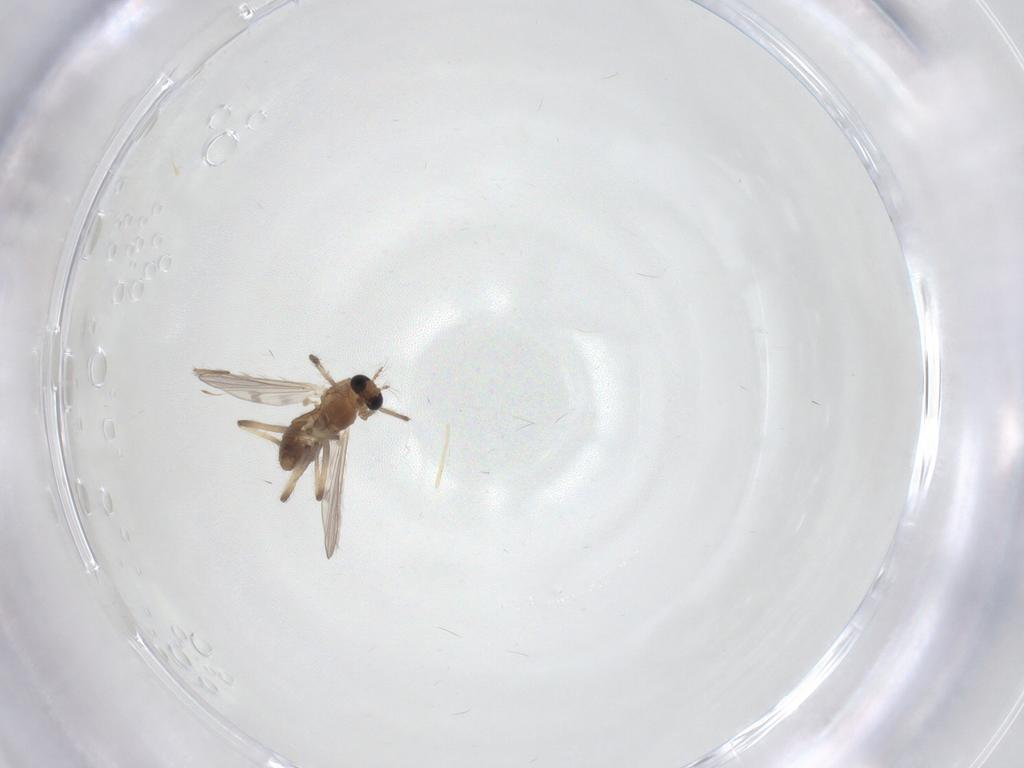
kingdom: Animalia
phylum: Arthropoda
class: Insecta
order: Diptera
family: Chironomidae
